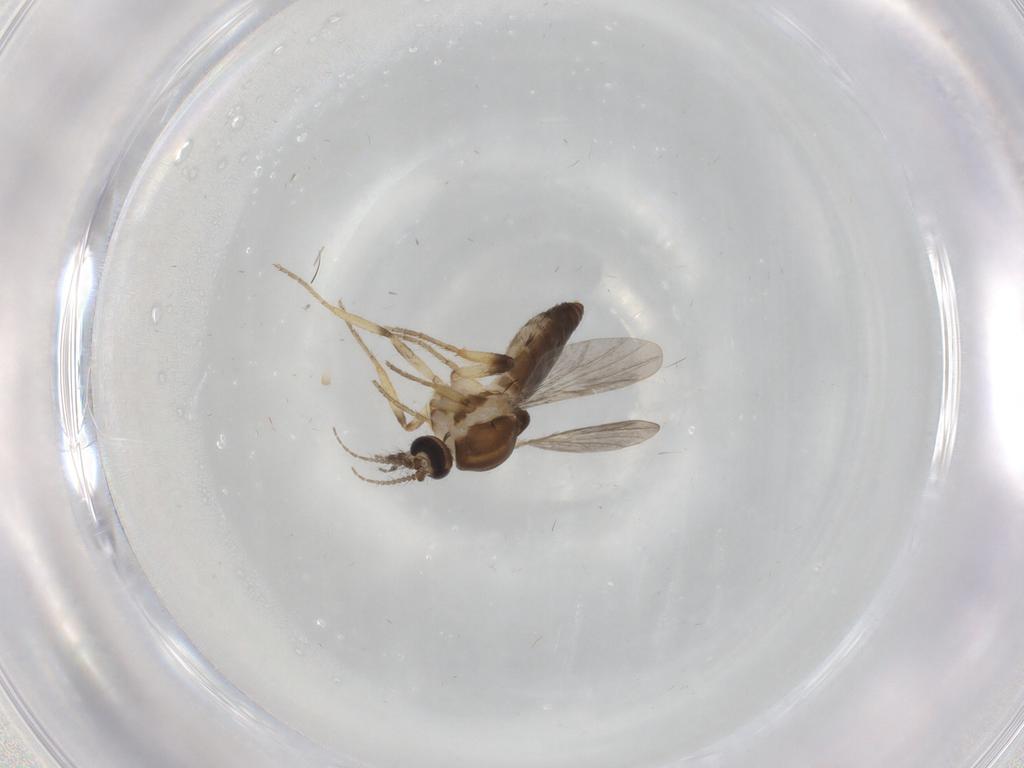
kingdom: Animalia
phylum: Arthropoda
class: Insecta
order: Diptera
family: Ceratopogonidae
